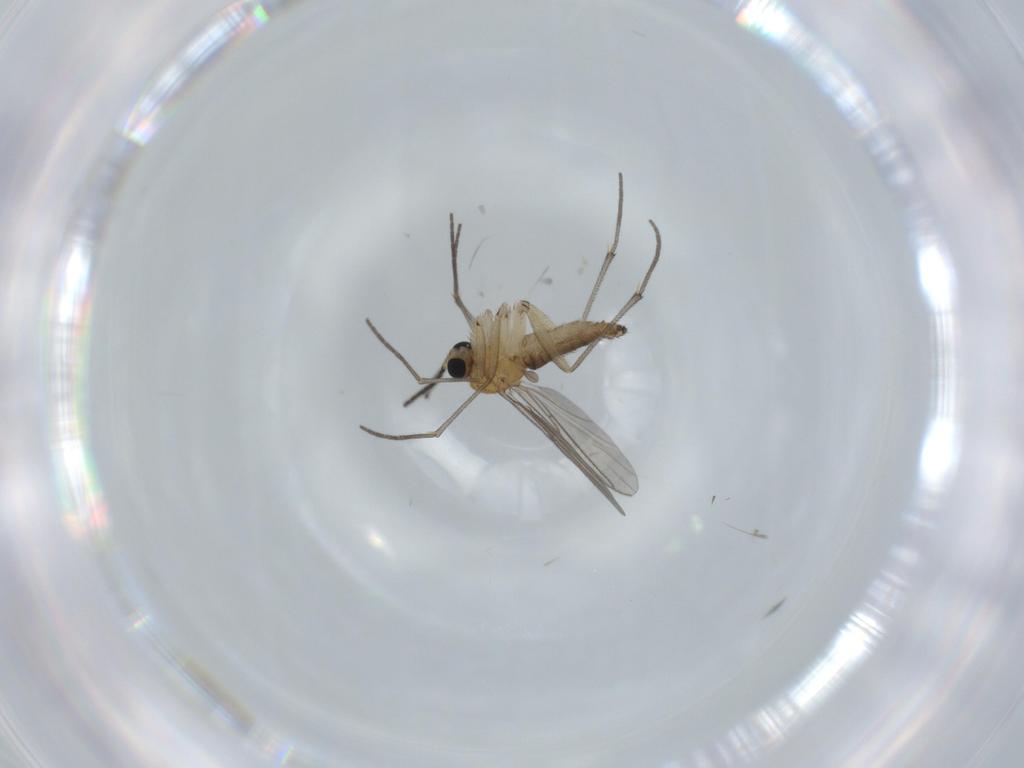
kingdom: Animalia
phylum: Arthropoda
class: Insecta
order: Diptera
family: Sciaridae
